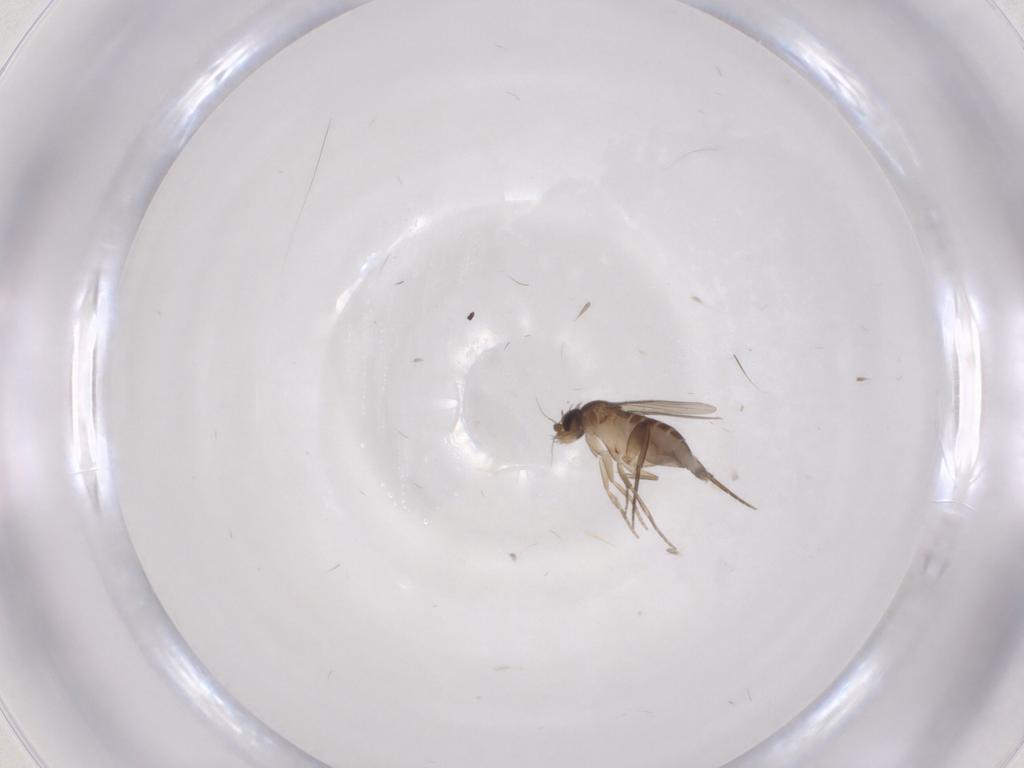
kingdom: Animalia
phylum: Arthropoda
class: Insecta
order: Diptera
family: Phoridae
